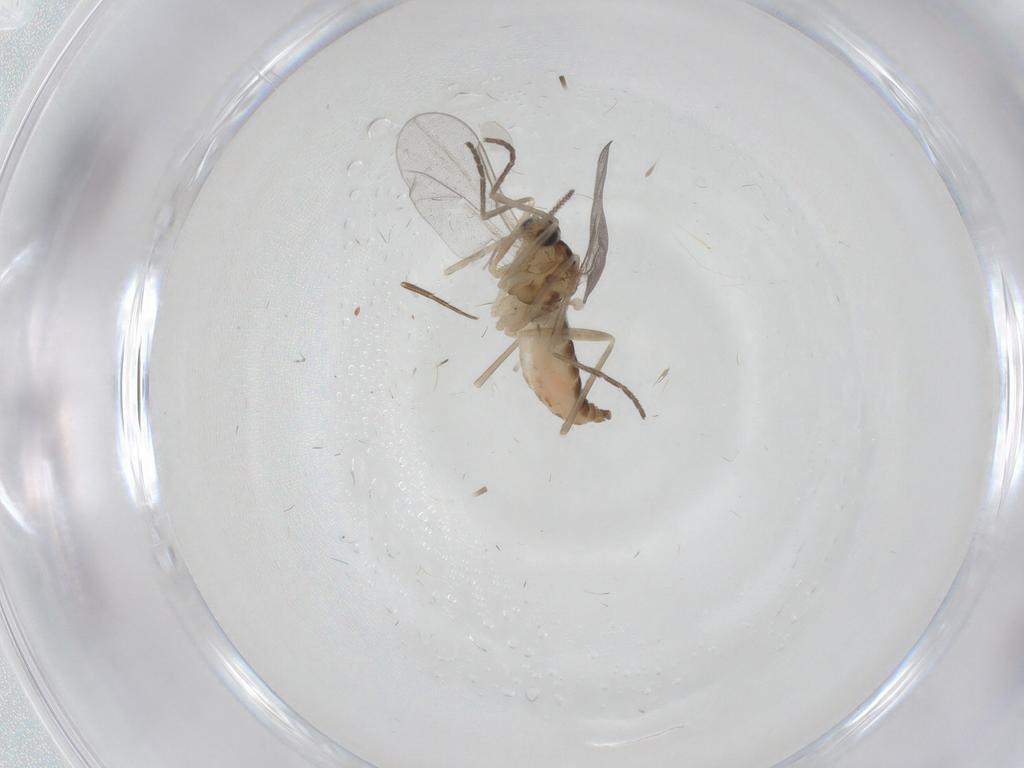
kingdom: Animalia
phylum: Arthropoda
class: Insecta
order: Diptera
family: Cecidomyiidae
